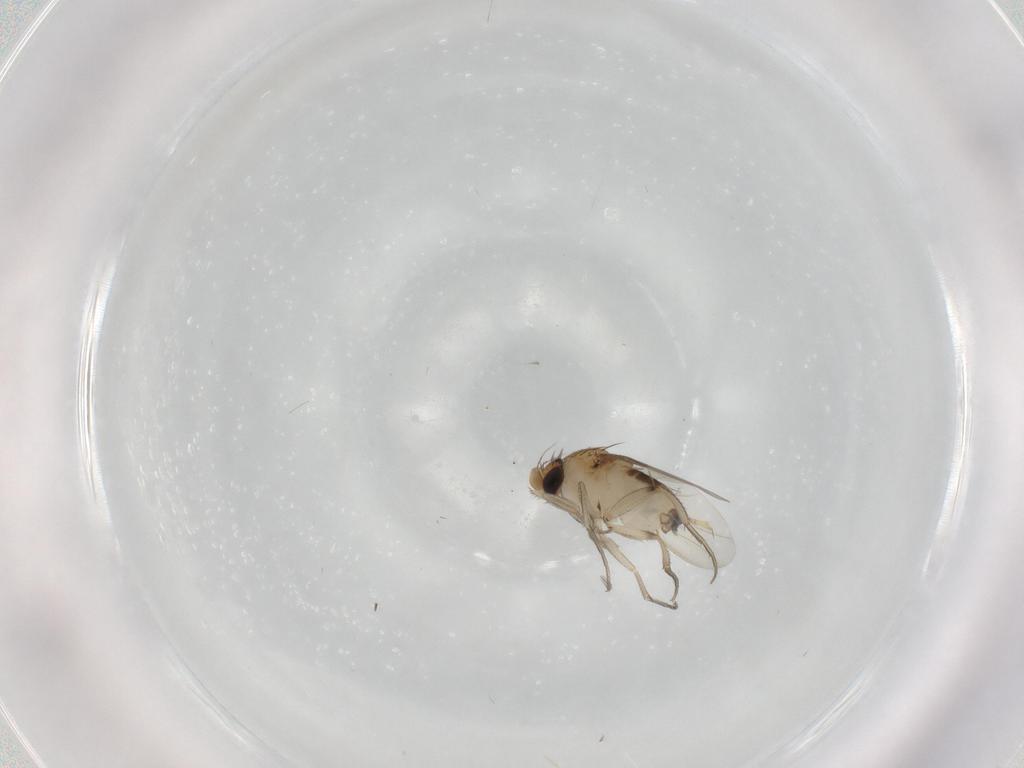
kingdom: Animalia
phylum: Arthropoda
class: Insecta
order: Diptera
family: Phoridae
